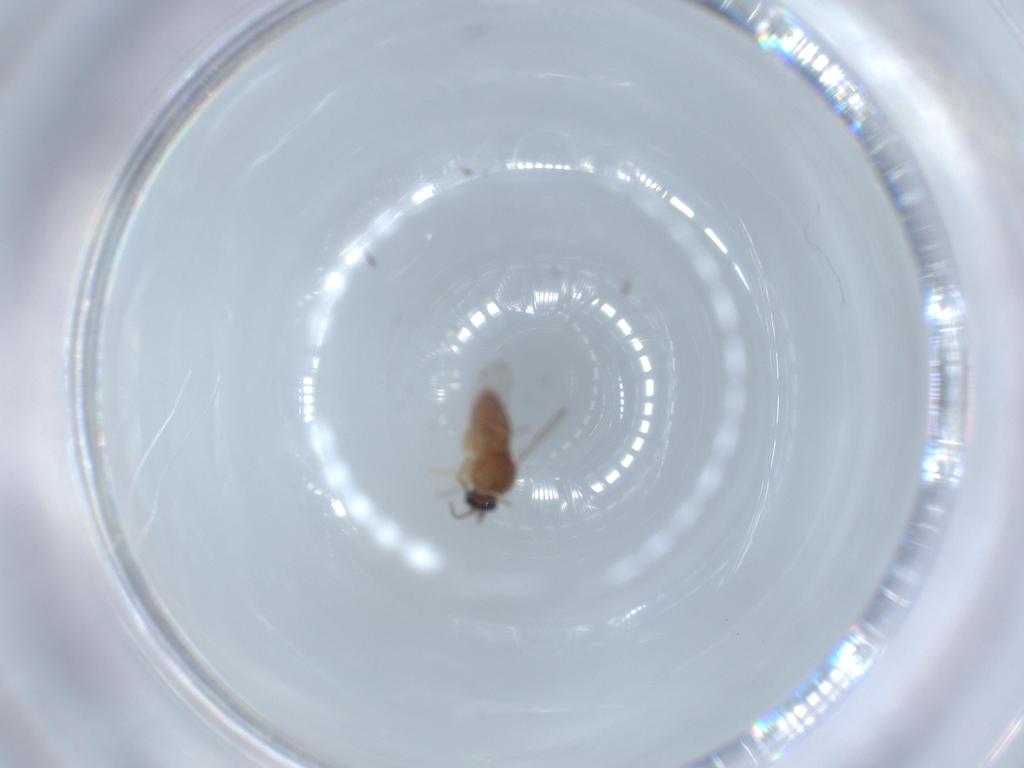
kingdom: Animalia
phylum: Arthropoda
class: Insecta
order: Diptera
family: Ceratopogonidae
